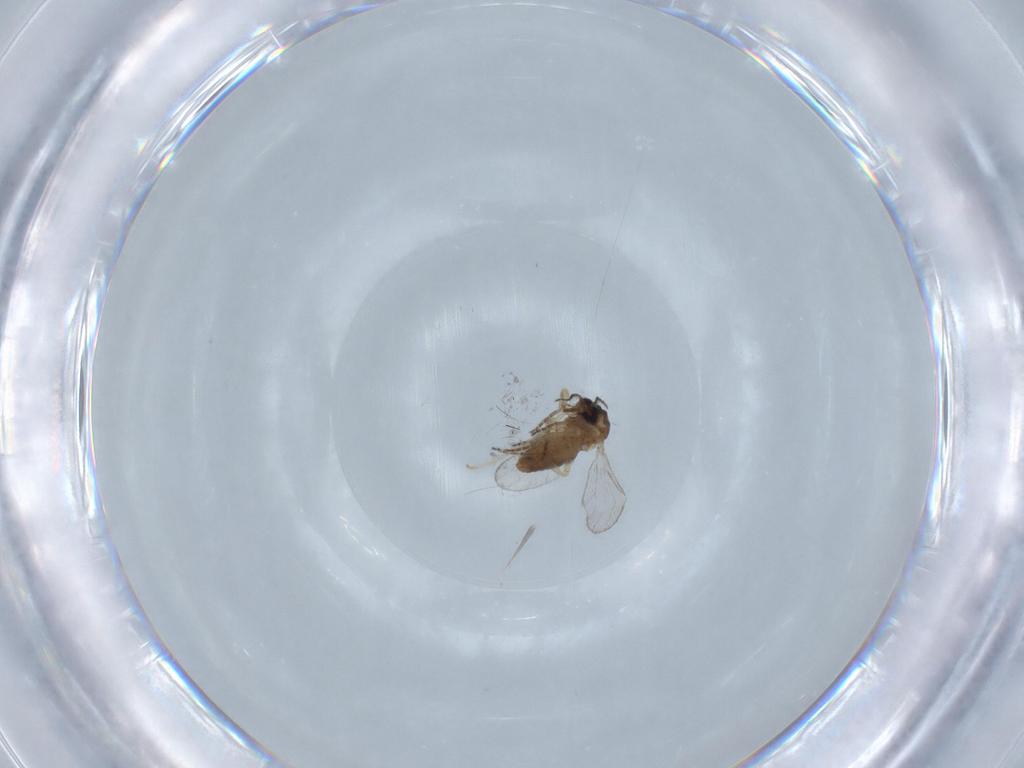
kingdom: Animalia
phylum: Arthropoda
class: Insecta
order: Diptera
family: Ceratopogonidae
